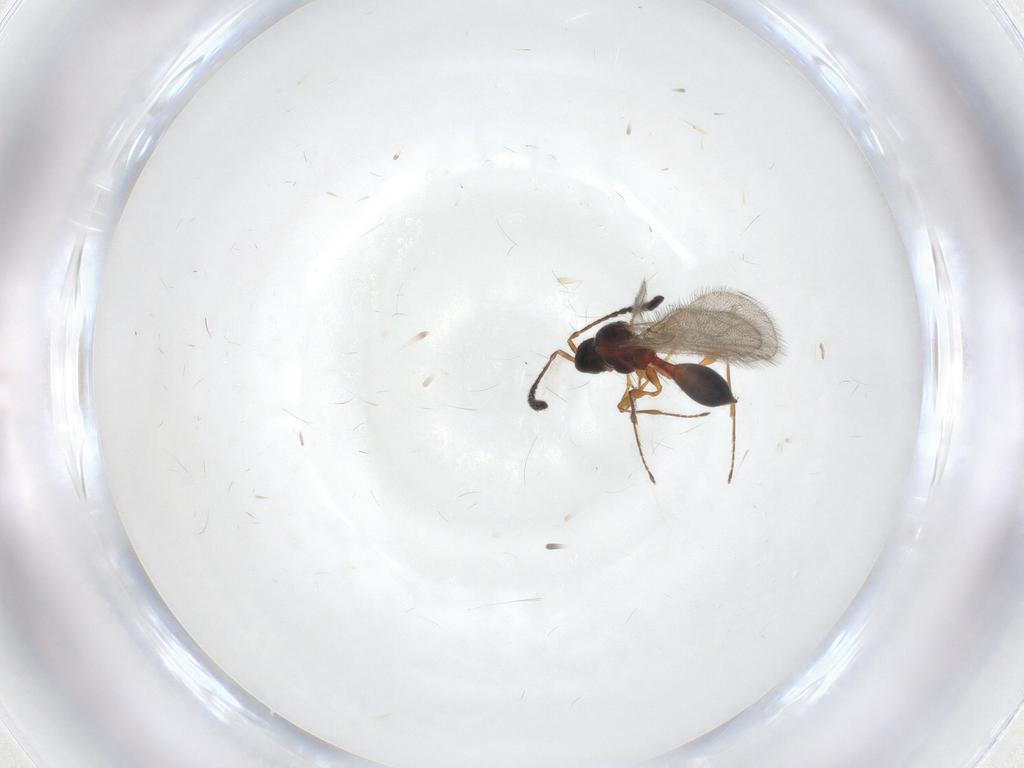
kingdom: Animalia
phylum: Arthropoda
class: Insecta
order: Hymenoptera
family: Diapriidae
